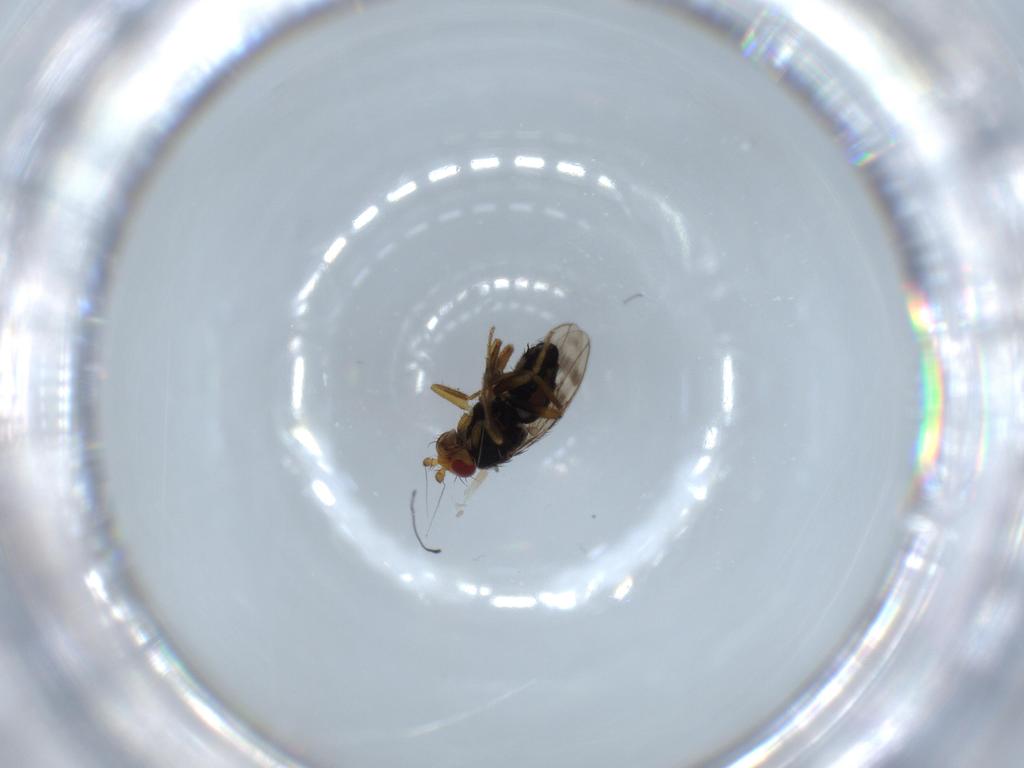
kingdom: Animalia
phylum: Arthropoda
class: Insecta
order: Diptera
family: Sphaeroceridae
